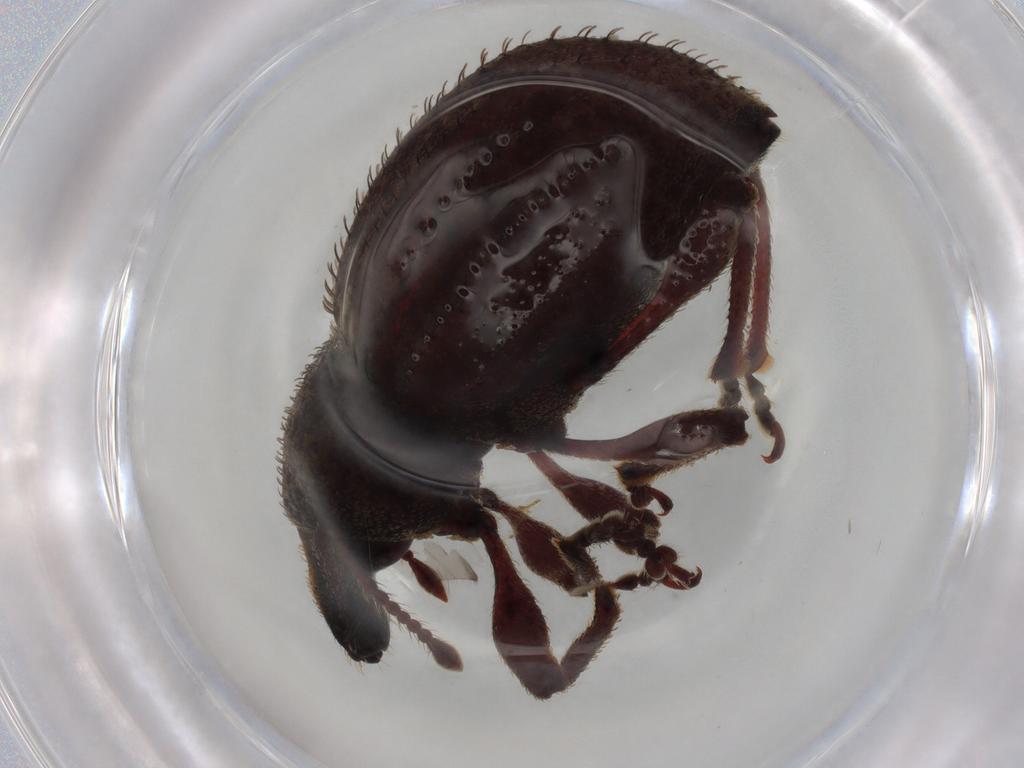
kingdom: Animalia
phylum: Arthropoda
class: Insecta
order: Coleoptera
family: Curculionidae
